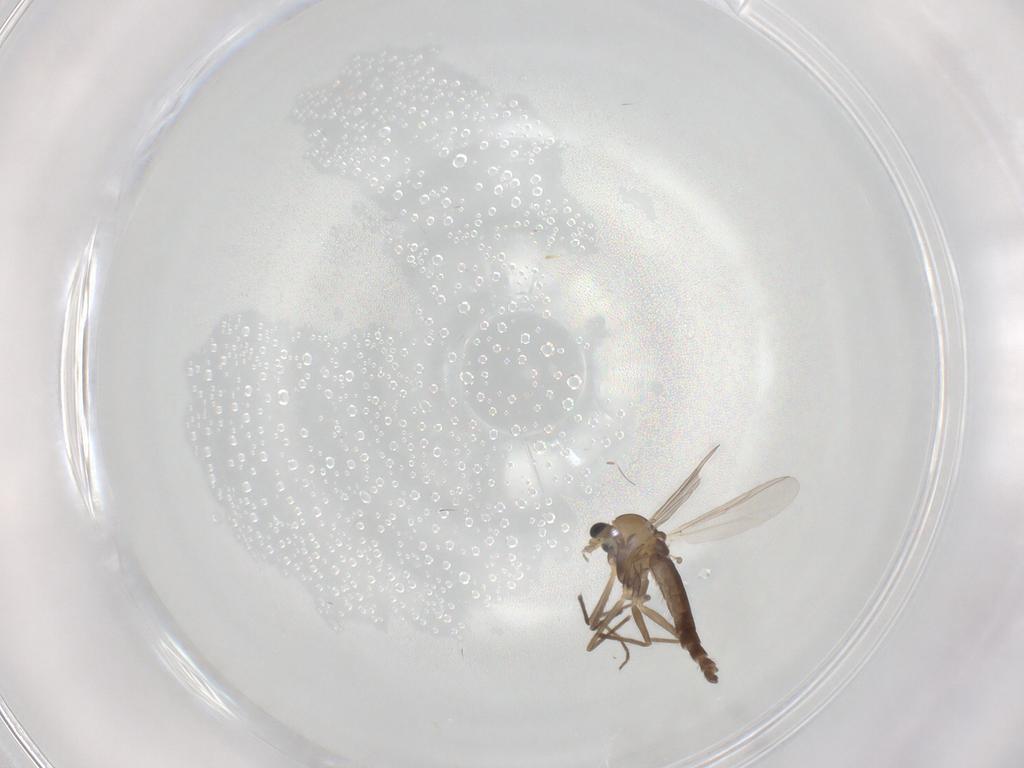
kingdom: Animalia
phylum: Arthropoda
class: Insecta
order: Diptera
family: Chironomidae
